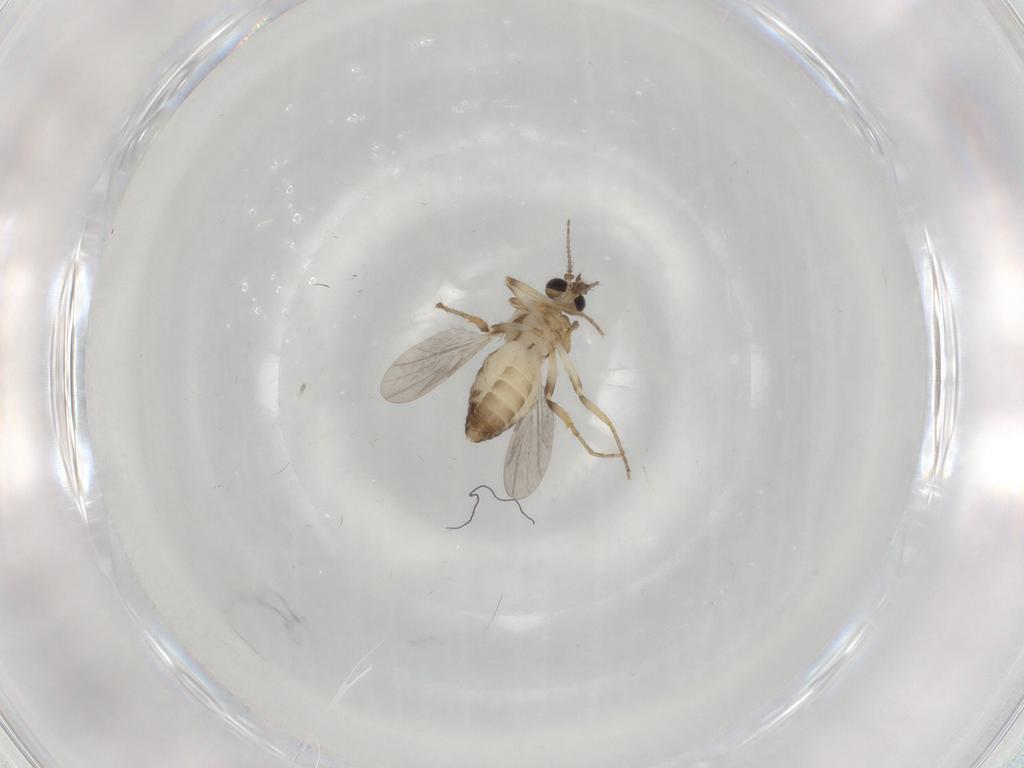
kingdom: Animalia
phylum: Arthropoda
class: Insecta
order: Diptera
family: Ceratopogonidae
